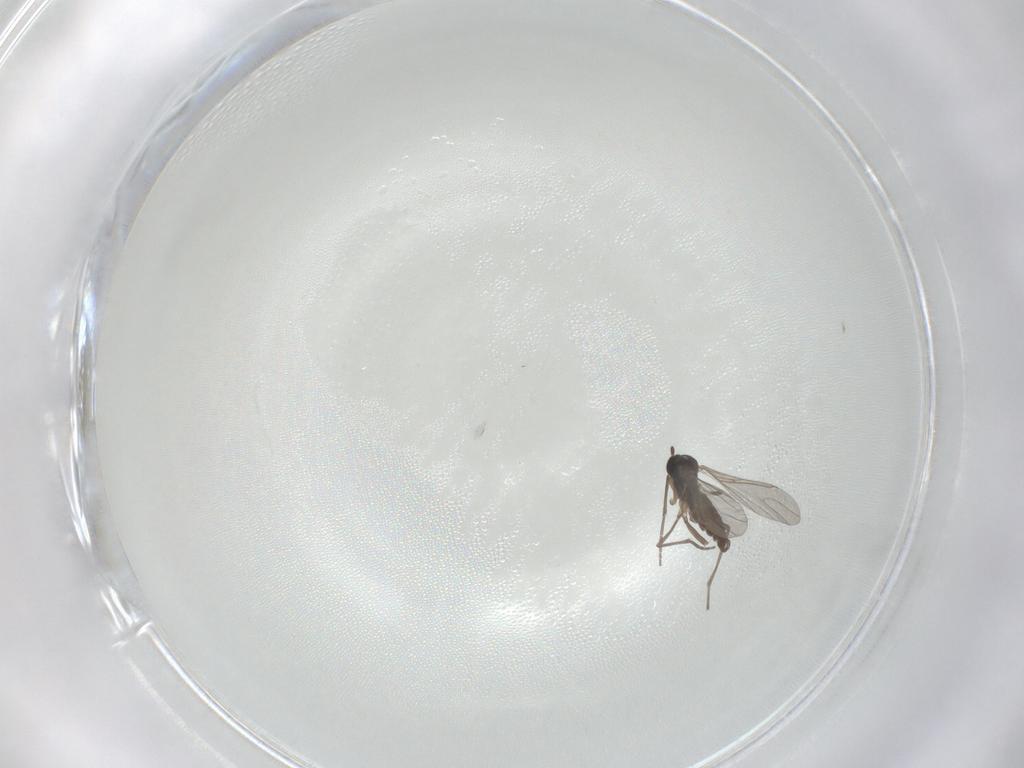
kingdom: Animalia
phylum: Arthropoda
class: Insecta
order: Diptera
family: Sciaridae
